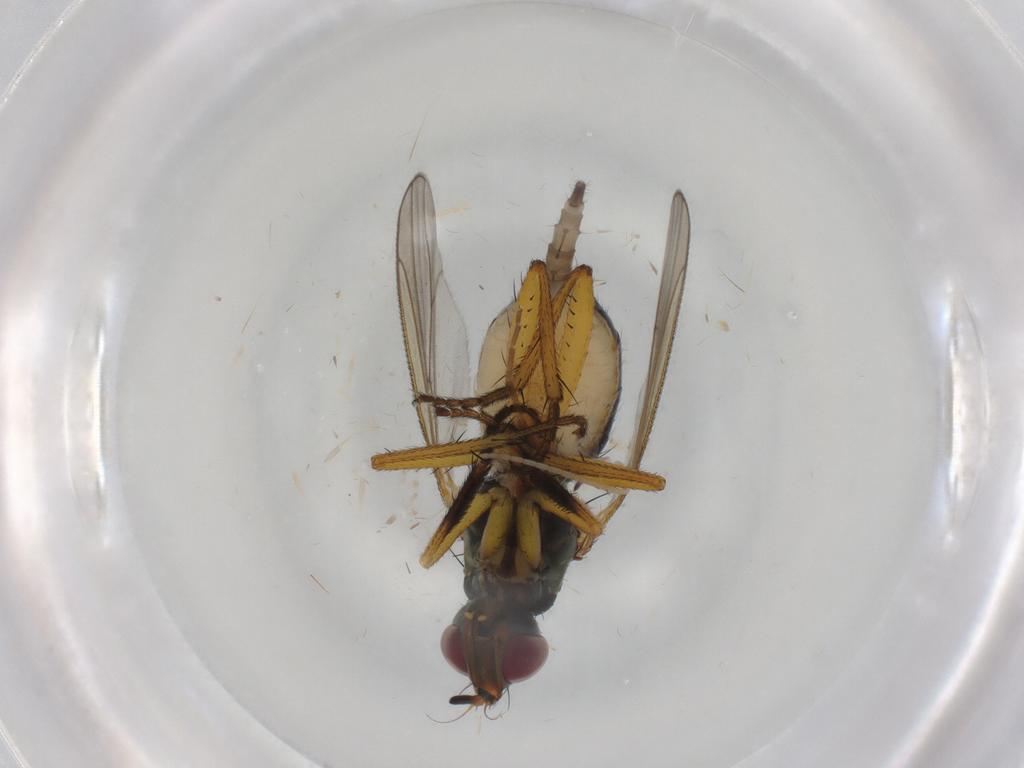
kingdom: Animalia
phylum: Arthropoda
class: Insecta
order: Diptera
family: Muscidae
